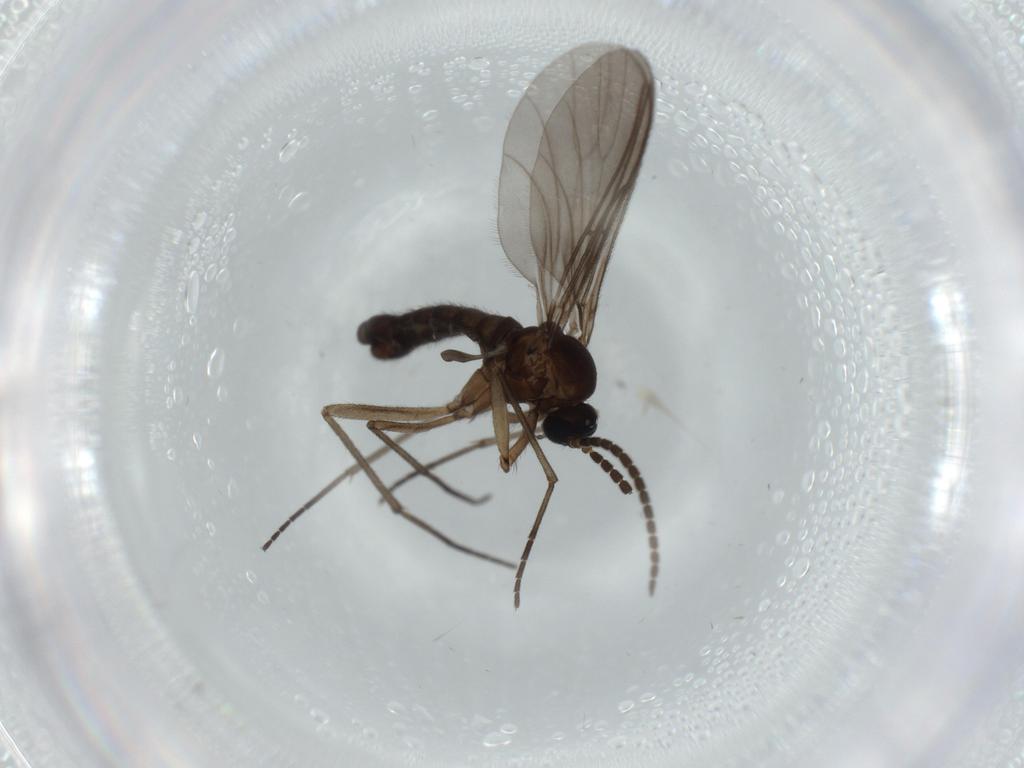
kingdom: Animalia
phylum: Arthropoda
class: Insecta
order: Diptera
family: Sciaridae
